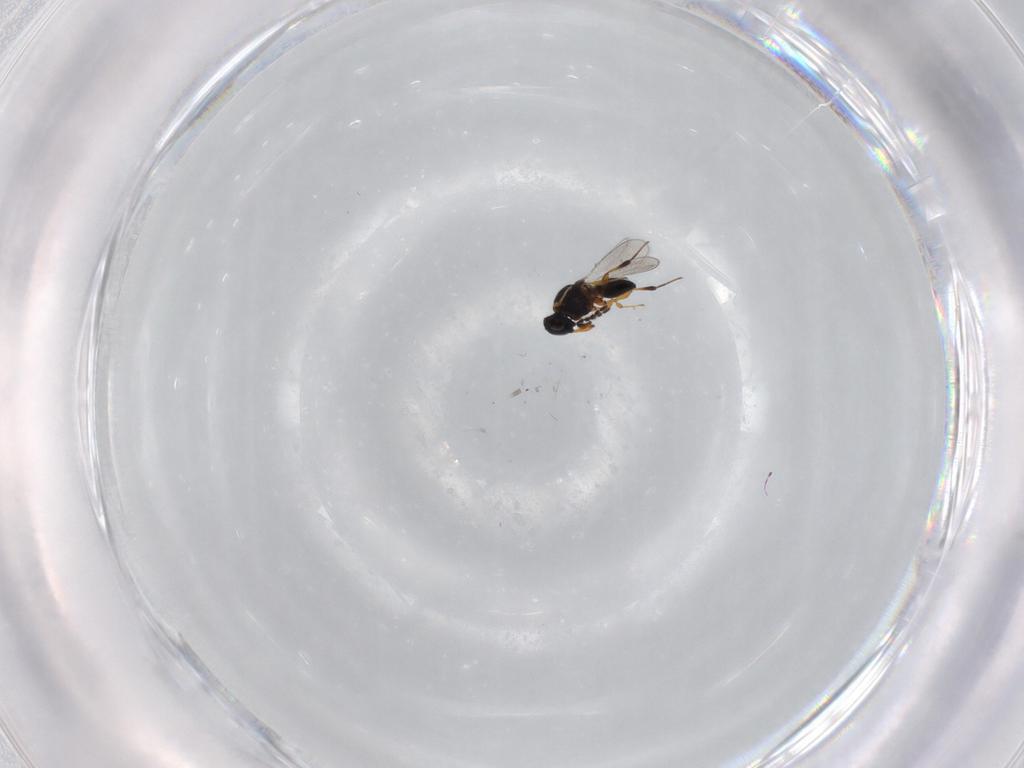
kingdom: Animalia
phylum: Arthropoda
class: Insecta
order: Hymenoptera
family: Platygastridae
